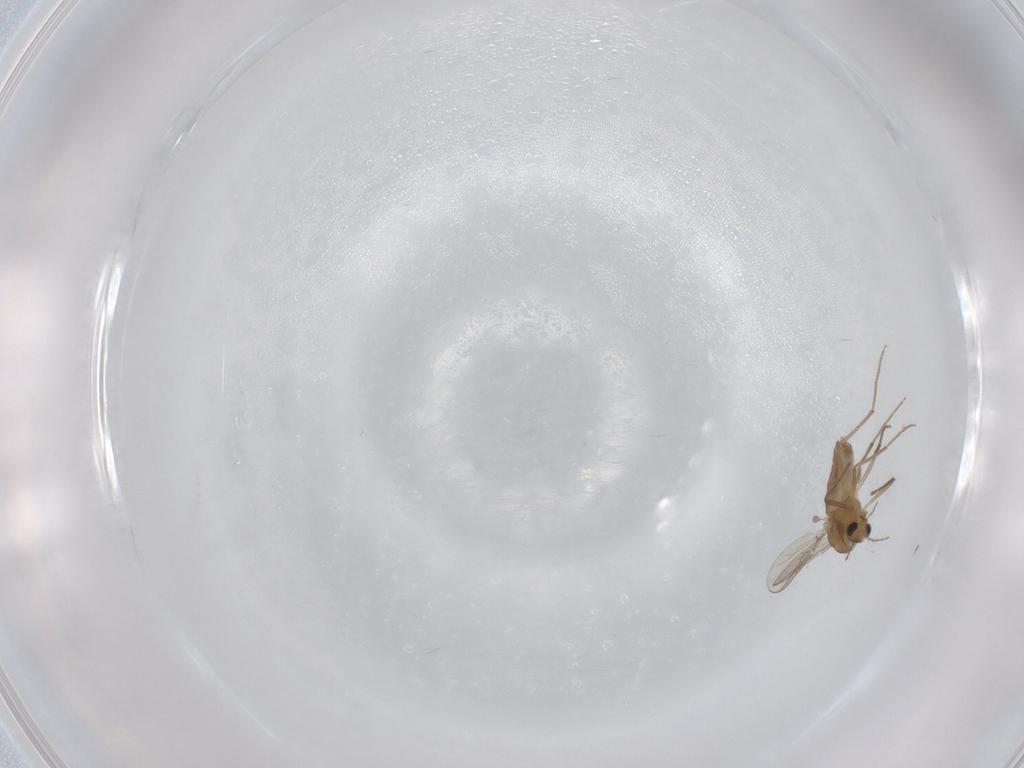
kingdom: Animalia
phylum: Arthropoda
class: Insecta
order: Diptera
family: Chironomidae
